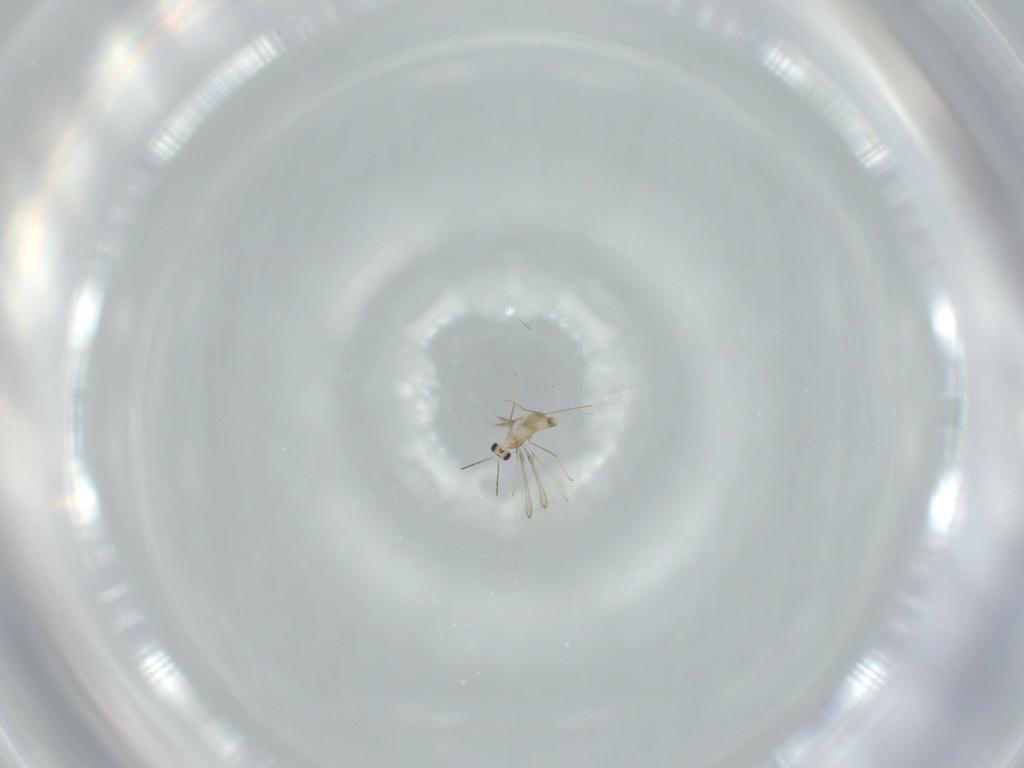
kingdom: Animalia
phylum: Arthropoda
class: Insecta
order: Hymenoptera
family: Mymaridae
